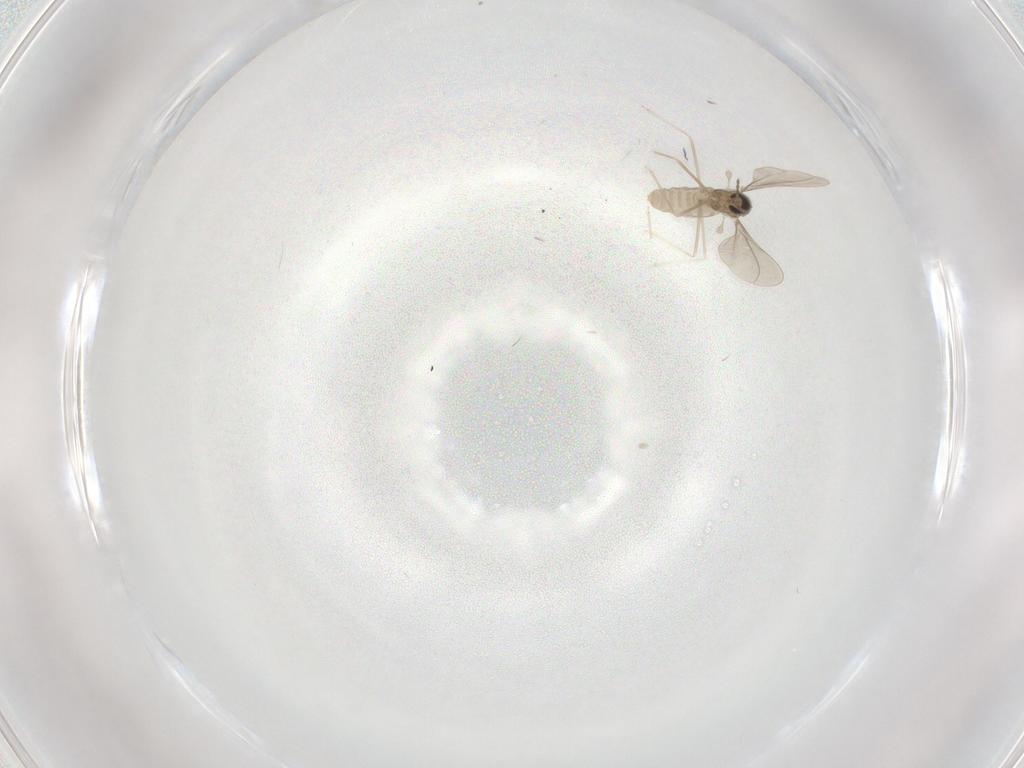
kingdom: Animalia
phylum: Arthropoda
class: Insecta
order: Diptera
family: Cecidomyiidae
